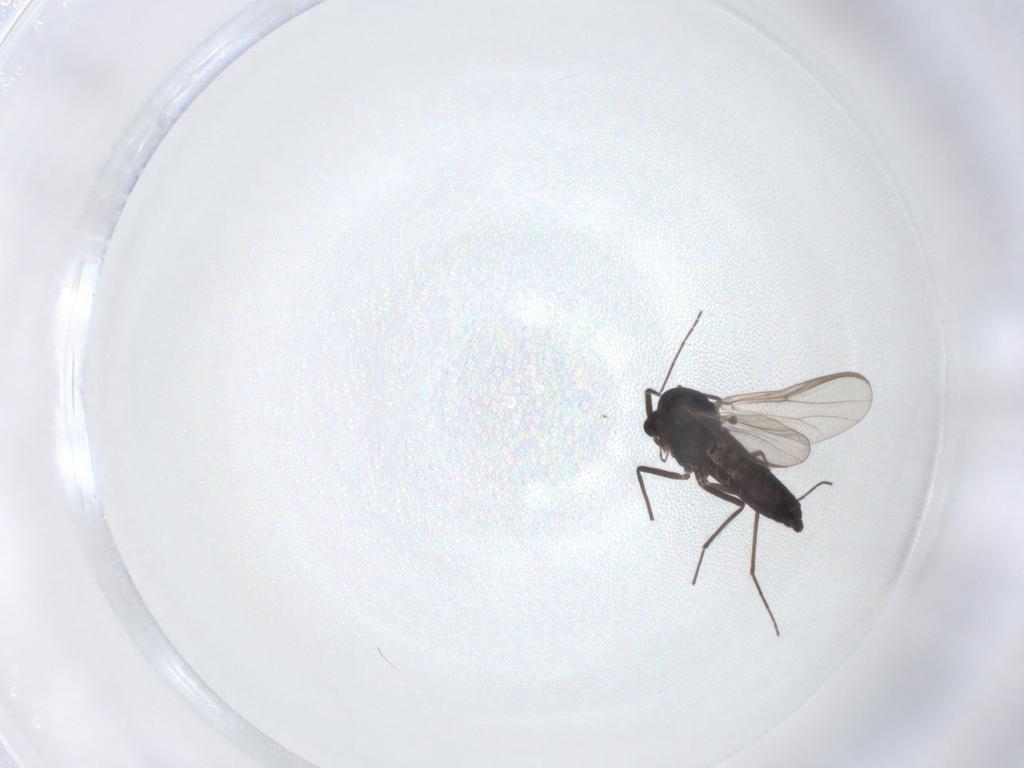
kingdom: Animalia
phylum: Arthropoda
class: Insecta
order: Diptera
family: Chironomidae
